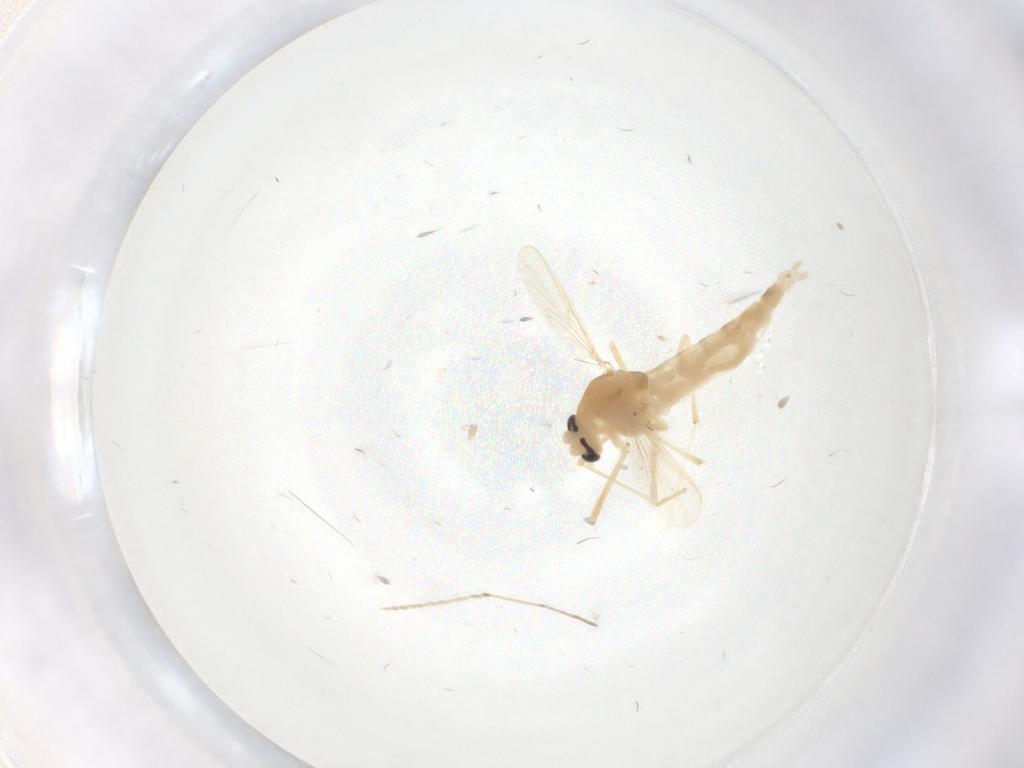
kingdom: Animalia
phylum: Arthropoda
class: Insecta
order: Diptera
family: Chironomidae
